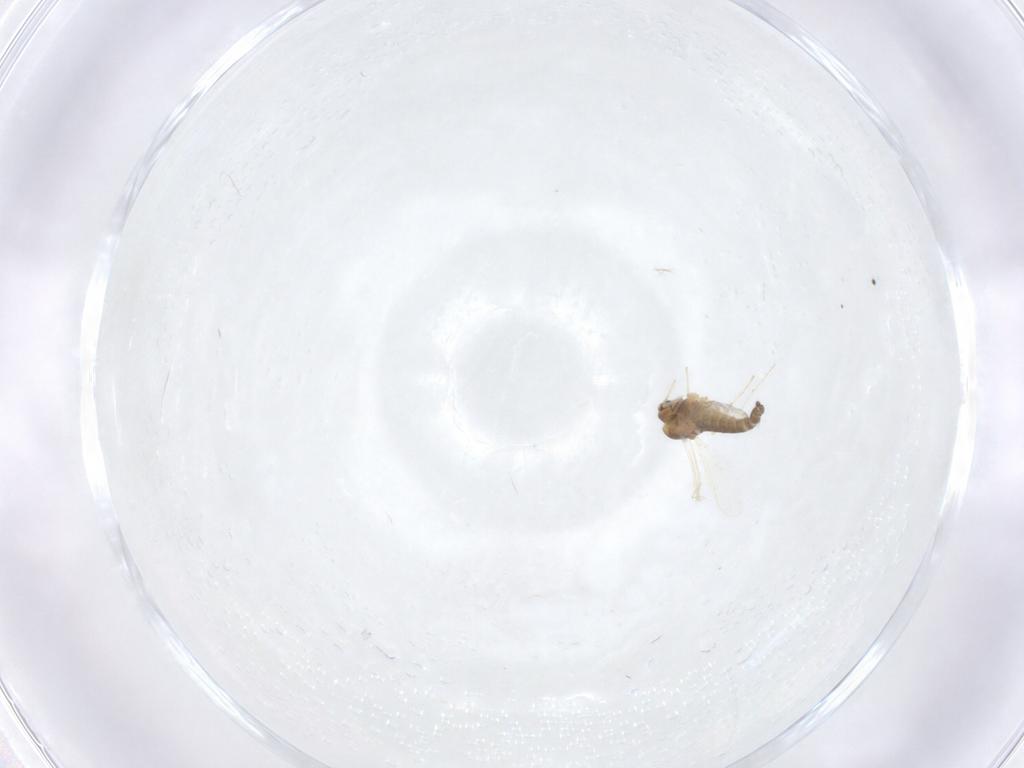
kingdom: Animalia
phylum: Arthropoda
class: Insecta
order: Diptera
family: Chironomidae
